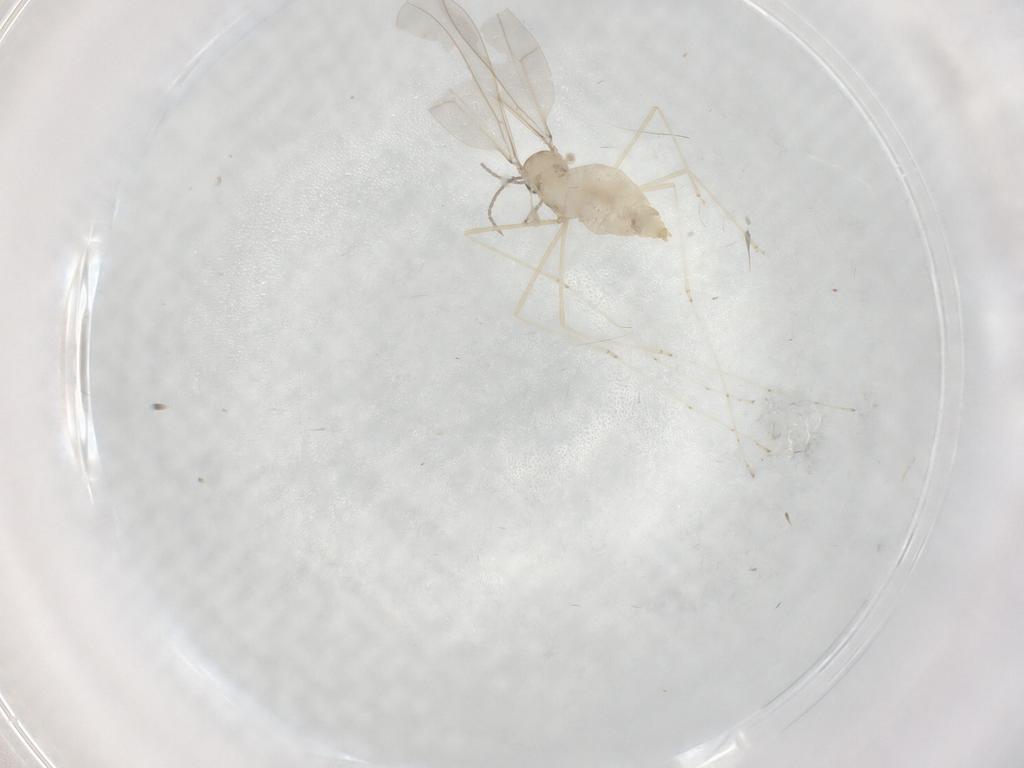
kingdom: Animalia
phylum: Arthropoda
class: Insecta
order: Diptera
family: Cecidomyiidae
